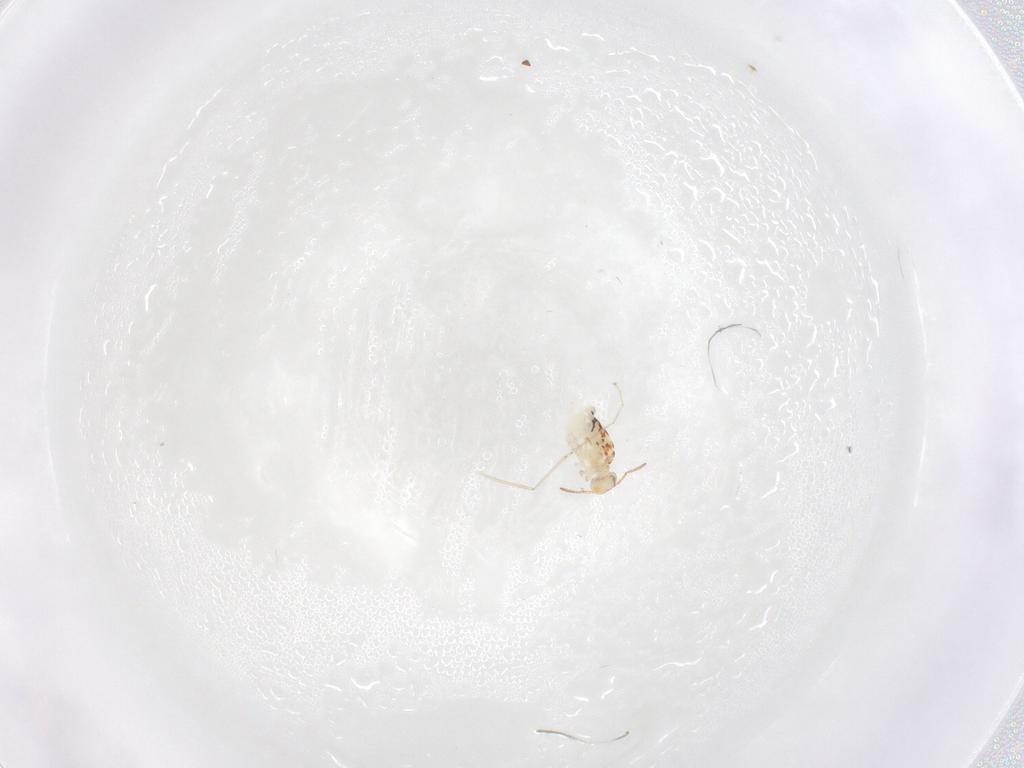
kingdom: Animalia
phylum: Arthropoda
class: Collembola
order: Symphypleona
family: Bourletiellidae
